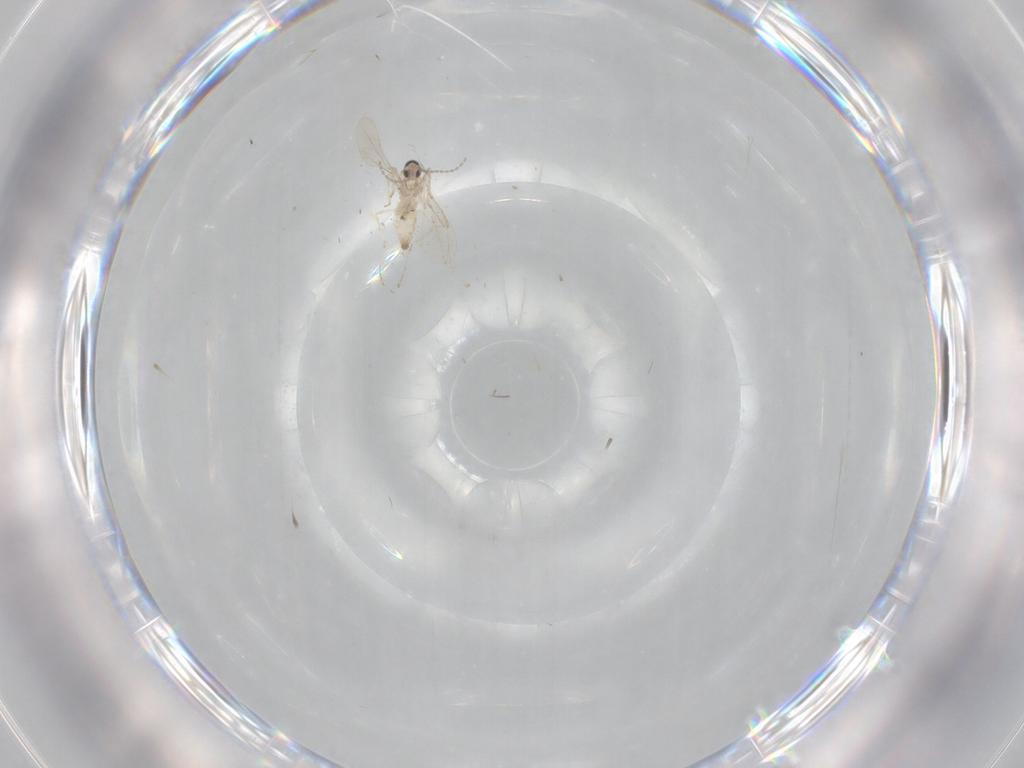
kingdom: Animalia
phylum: Arthropoda
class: Insecta
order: Diptera
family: Cecidomyiidae
